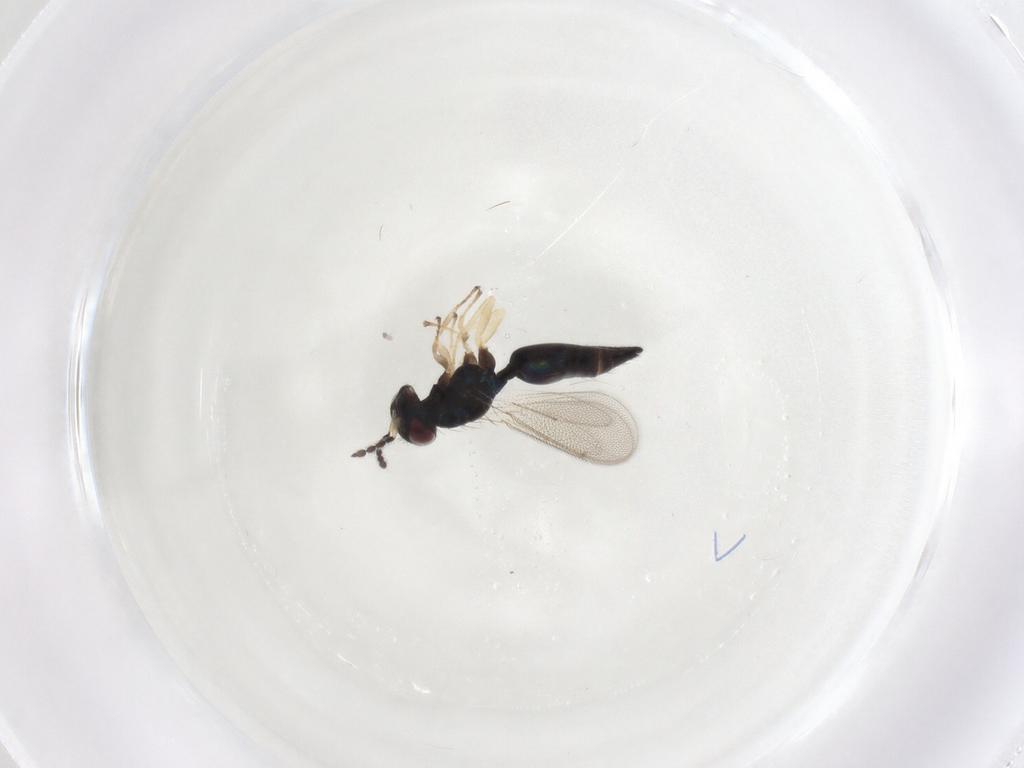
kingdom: Animalia
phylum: Arthropoda
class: Insecta
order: Hymenoptera
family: Eulophidae
